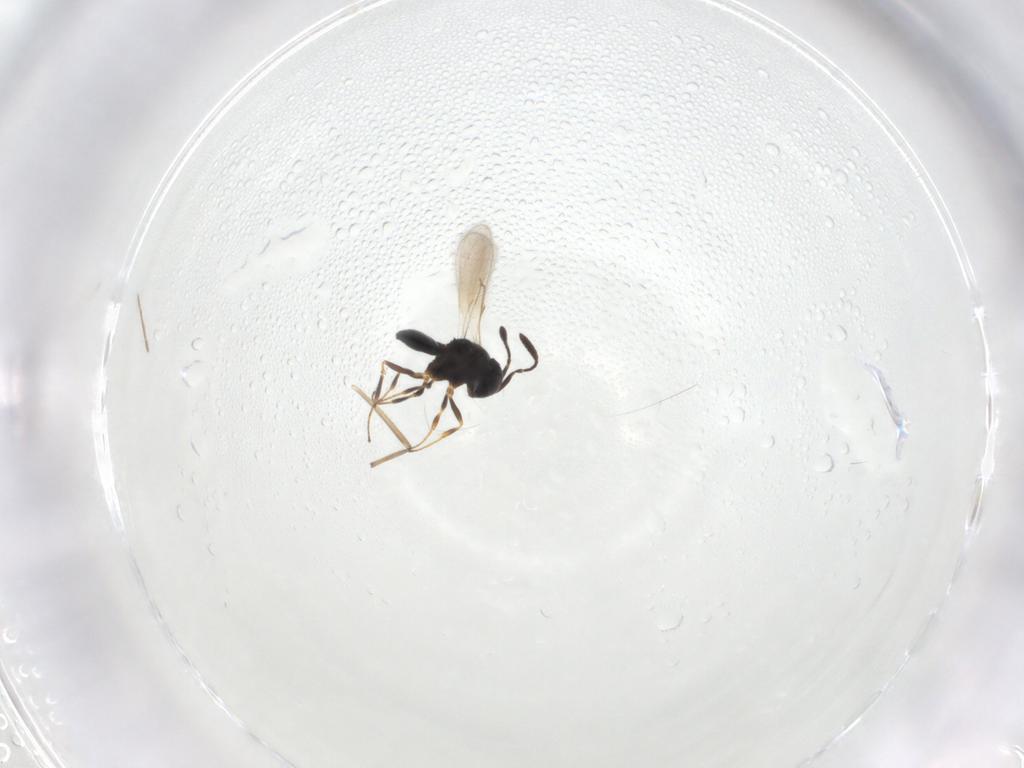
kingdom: Animalia
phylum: Arthropoda
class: Insecta
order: Hymenoptera
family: Scelionidae
